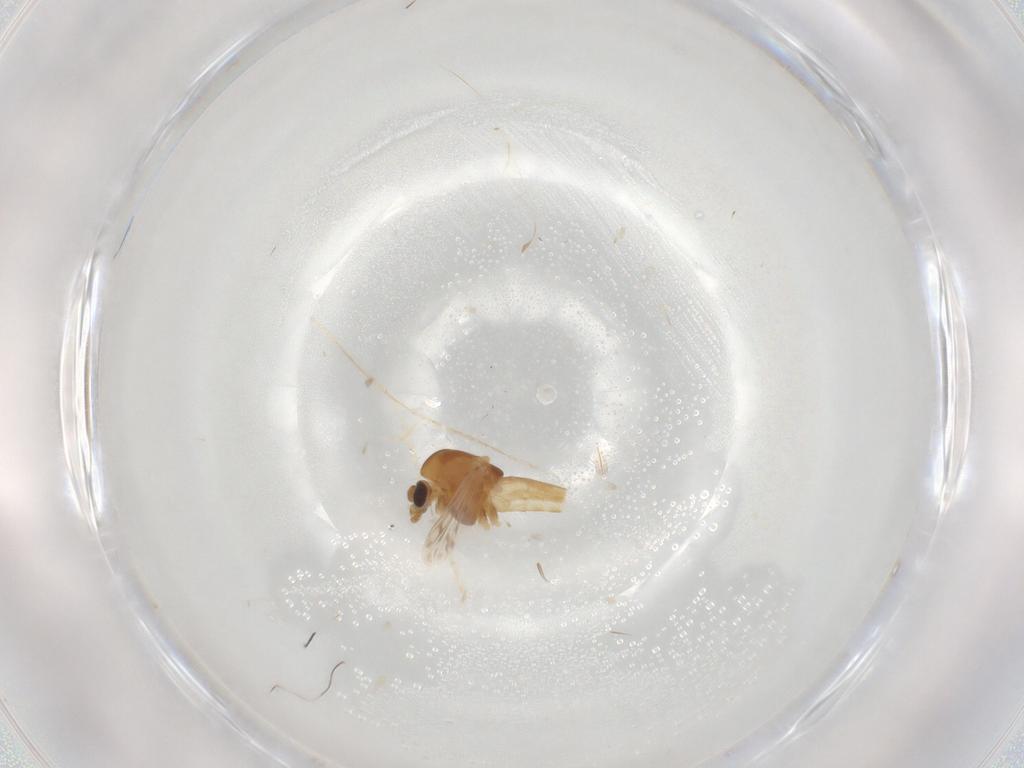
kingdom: Animalia
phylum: Arthropoda
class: Insecta
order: Diptera
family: Chironomidae
